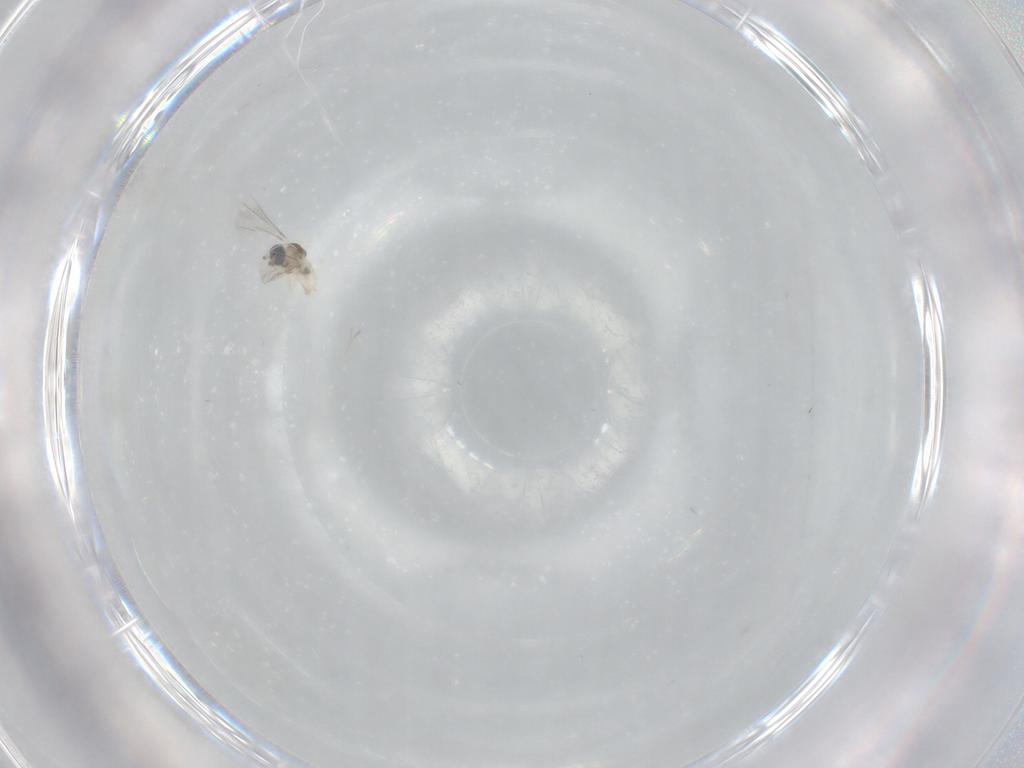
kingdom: Animalia
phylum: Arthropoda
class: Insecta
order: Diptera
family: Cecidomyiidae
